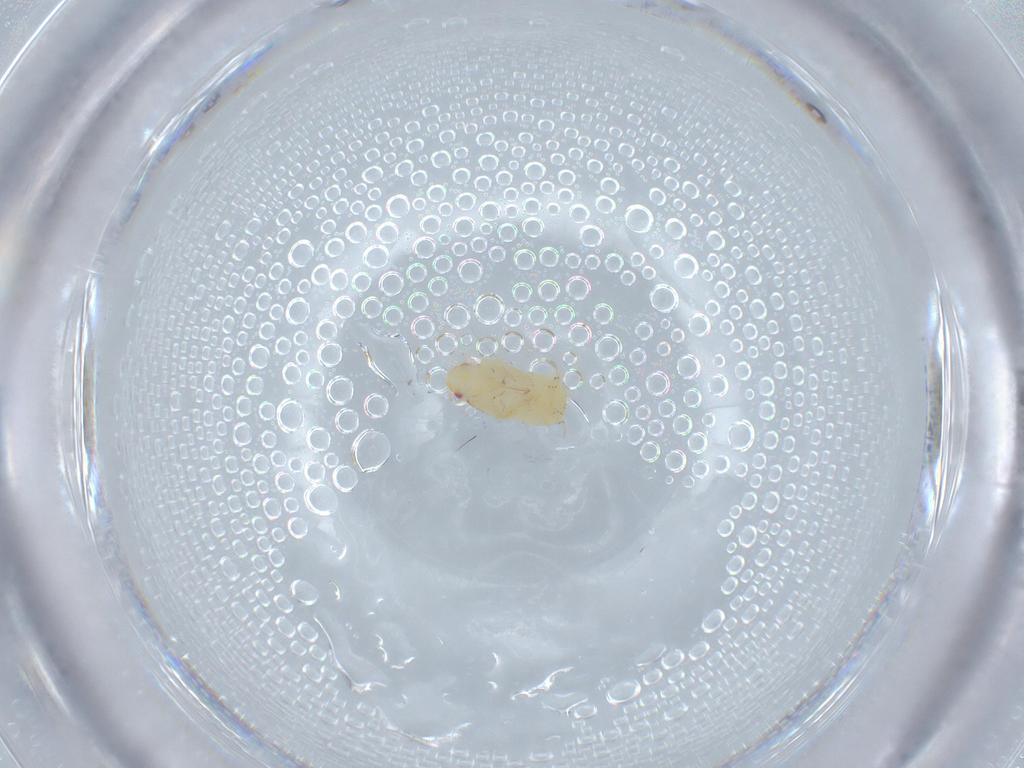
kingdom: Animalia
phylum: Arthropoda
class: Insecta
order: Hemiptera
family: Flatidae
